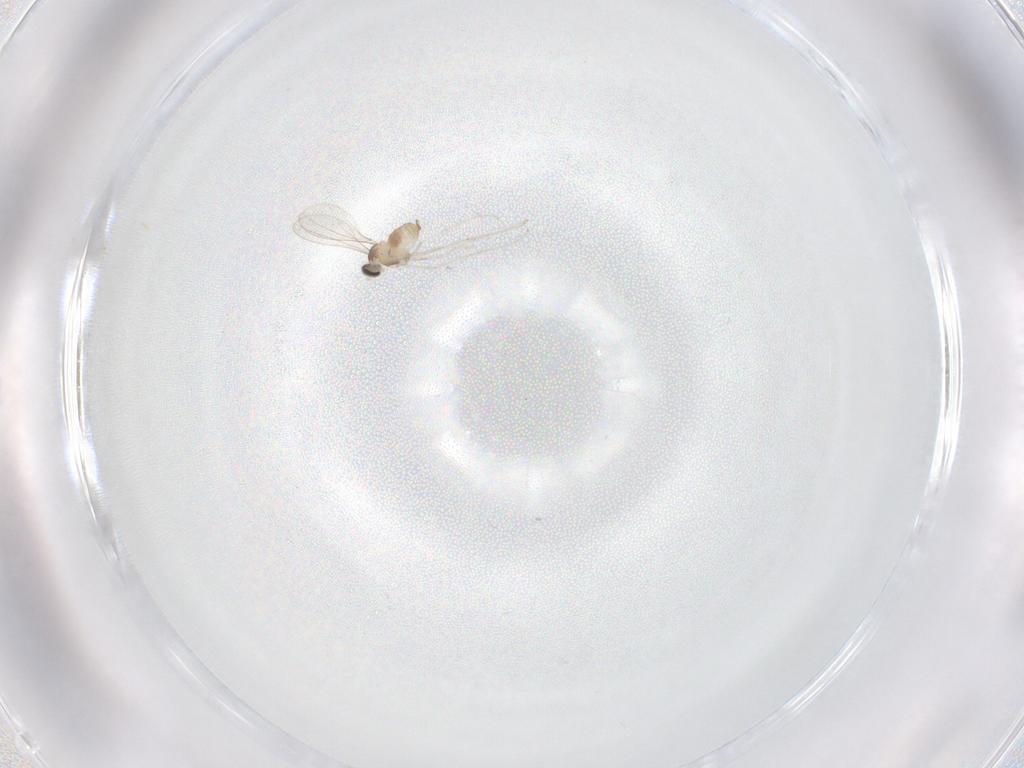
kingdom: Animalia
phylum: Arthropoda
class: Insecta
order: Diptera
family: Cecidomyiidae
